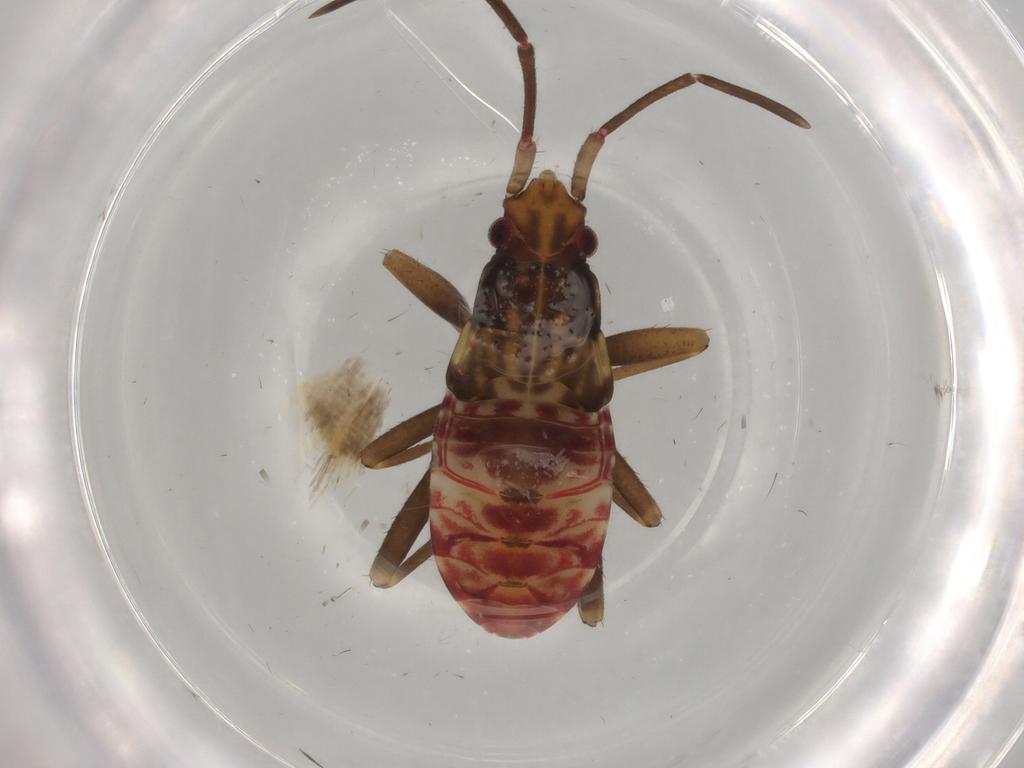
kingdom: Animalia
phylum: Arthropoda
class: Insecta
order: Hemiptera
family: Rhyparochromidae
